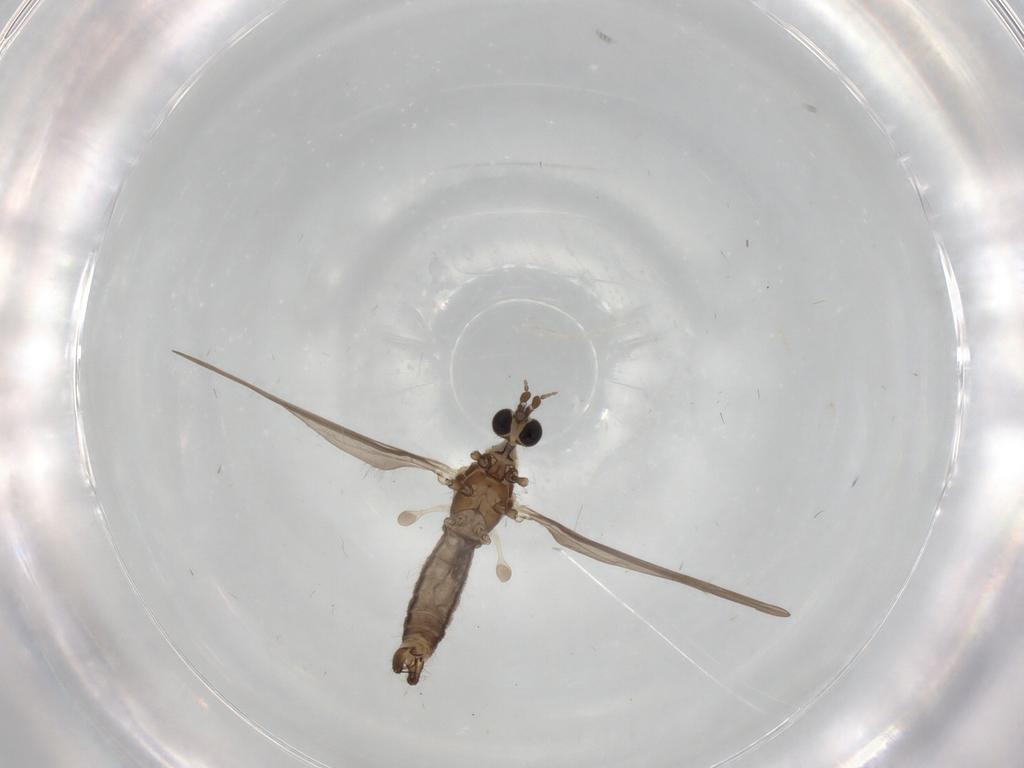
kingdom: Animalia
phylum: Arthropoda
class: Insecta
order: Diptera
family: Limoniidae
